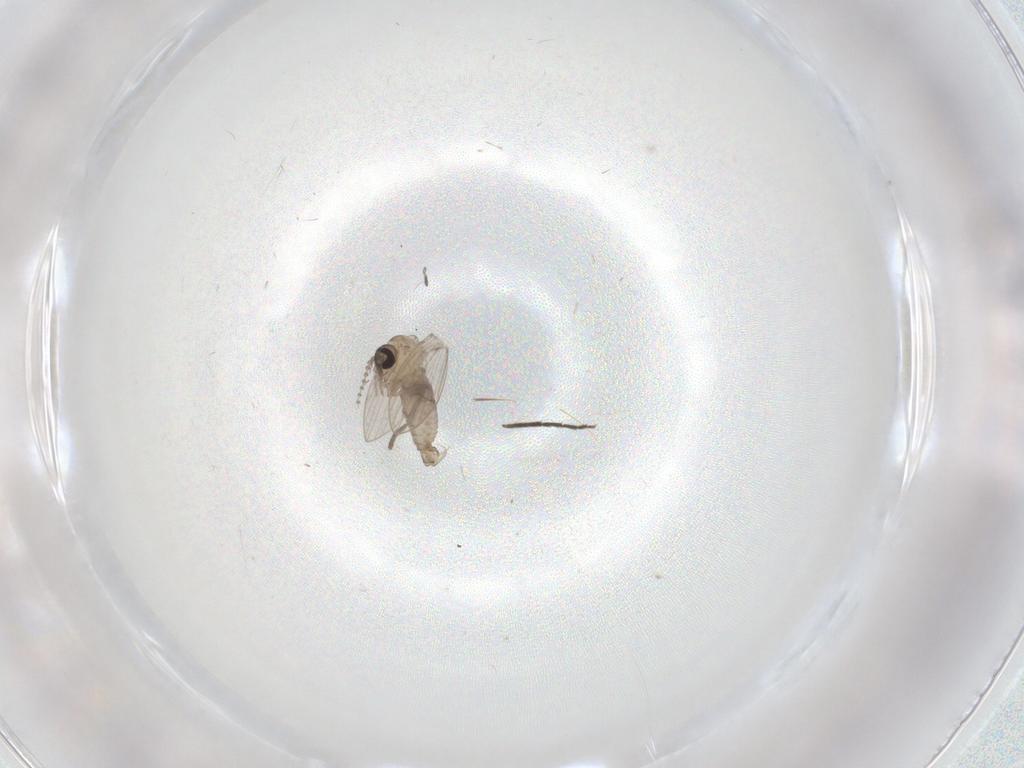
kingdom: Animalia
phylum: Arthropoda
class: Insecta
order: Diptera
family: Psychodidae
